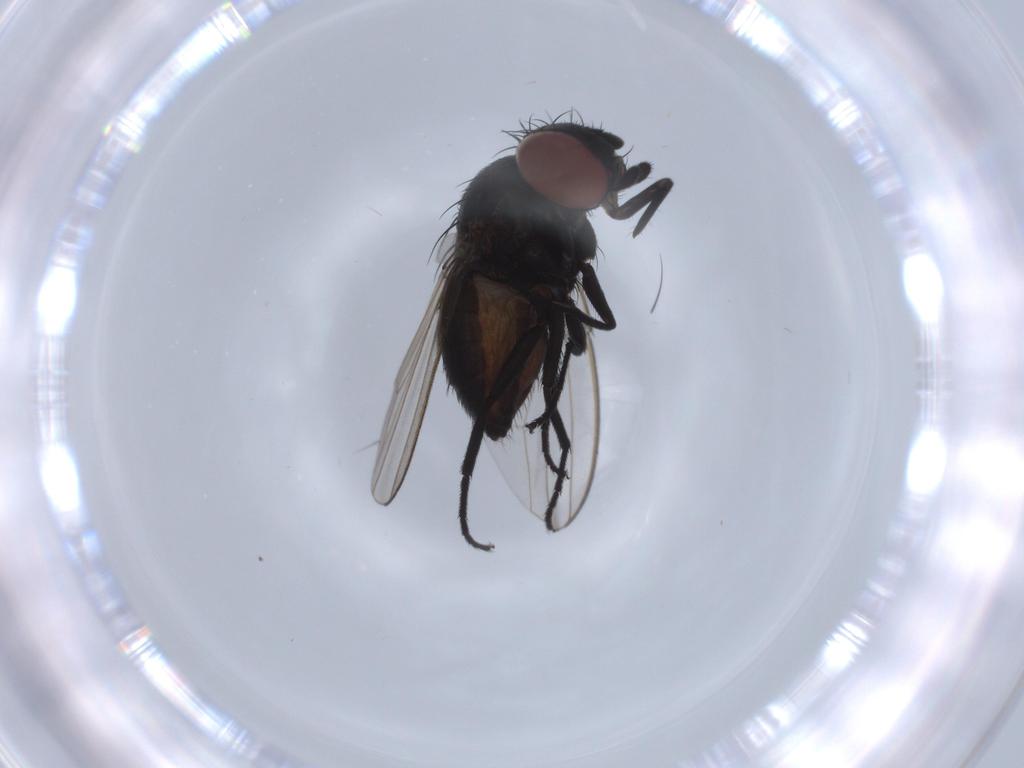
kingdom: Animalia
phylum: Arthropoda
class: Insecta
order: Diptera
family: Milichiidae
